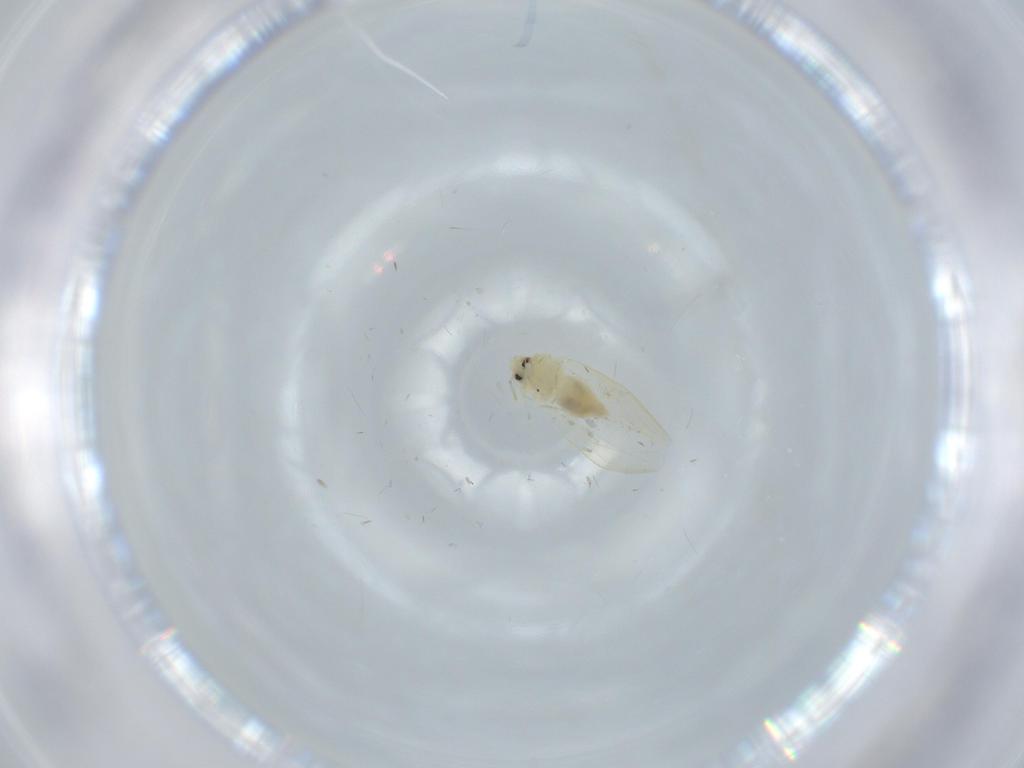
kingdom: Animalia
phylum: Arthropoda
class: Insecta
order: Hemiptera
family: Aleyrodidae
